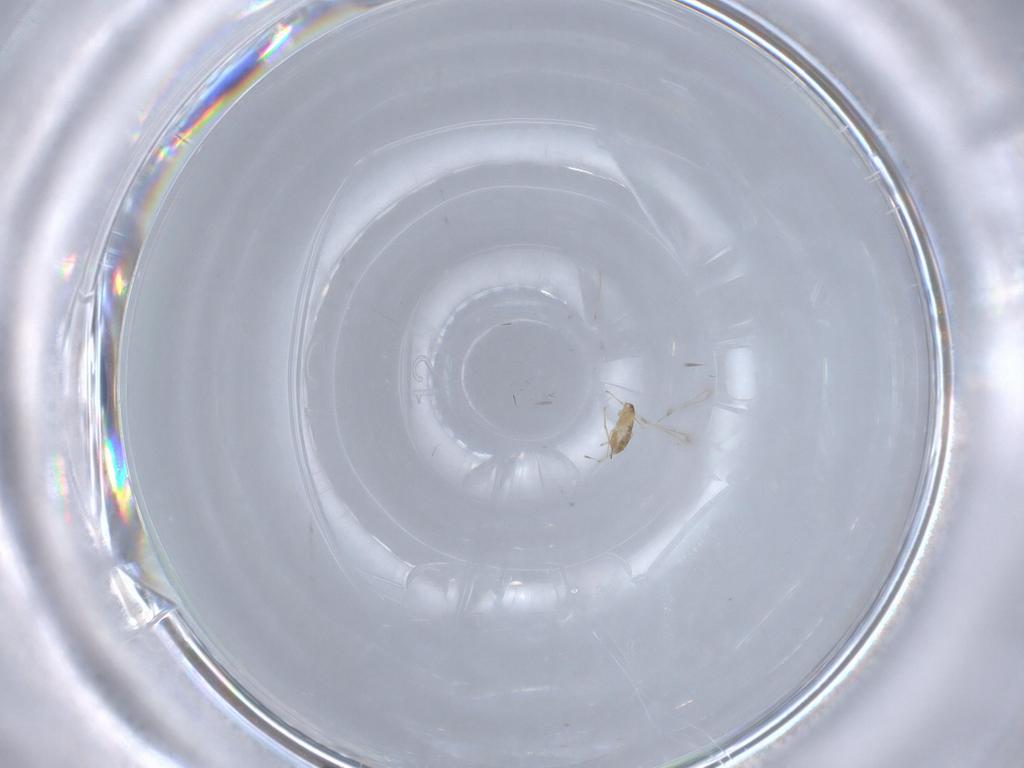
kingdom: Animalia
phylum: Arthropoda
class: Insecta
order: Hymenoptera
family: Mymaridae
